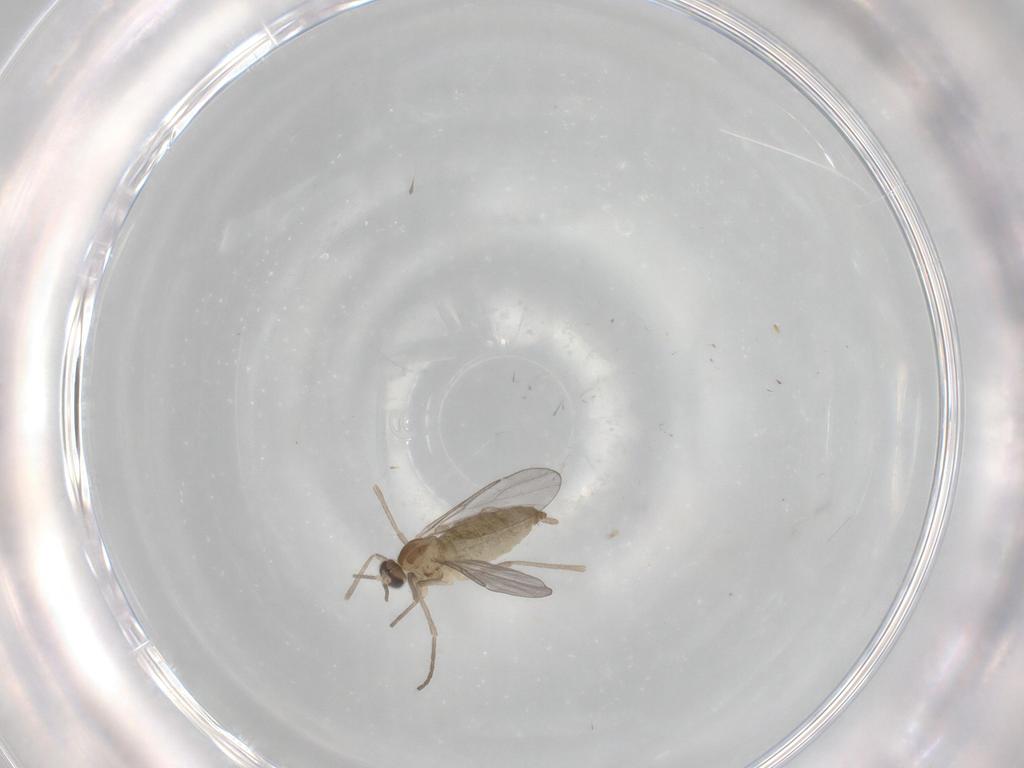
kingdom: Animalia
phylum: Arthropoda
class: Insecta
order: Diptera
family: Cecidomyiidae
